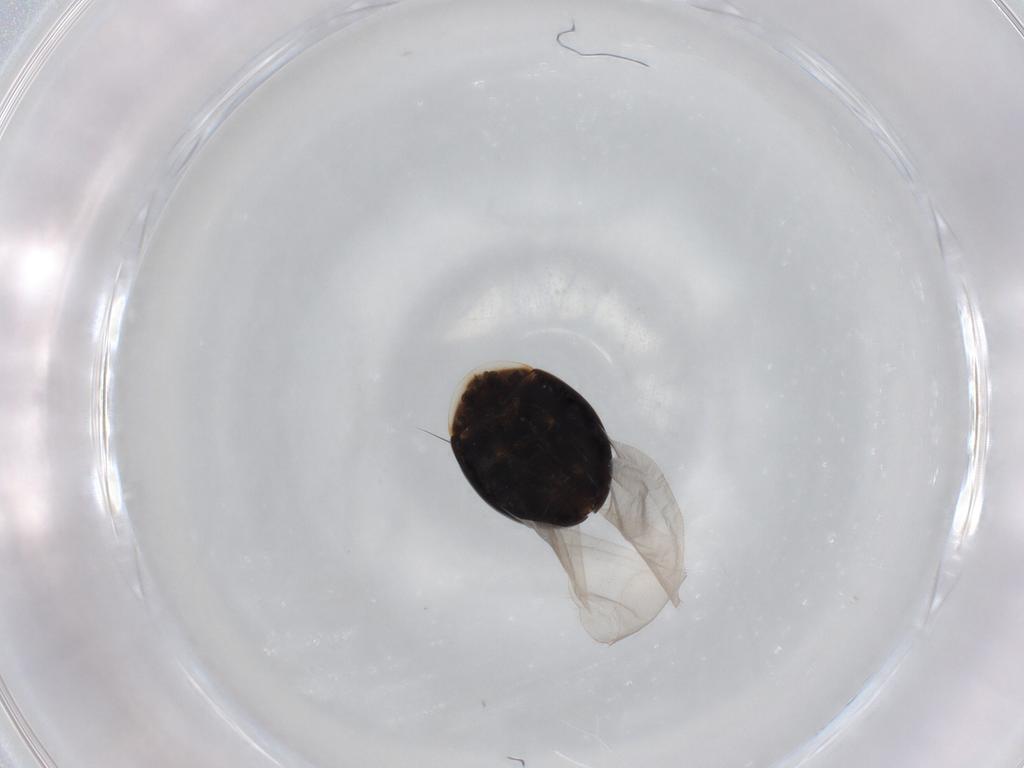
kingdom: Animalia
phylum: Arthropoda
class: Insecta
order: Coleoptera
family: Corylophidae
